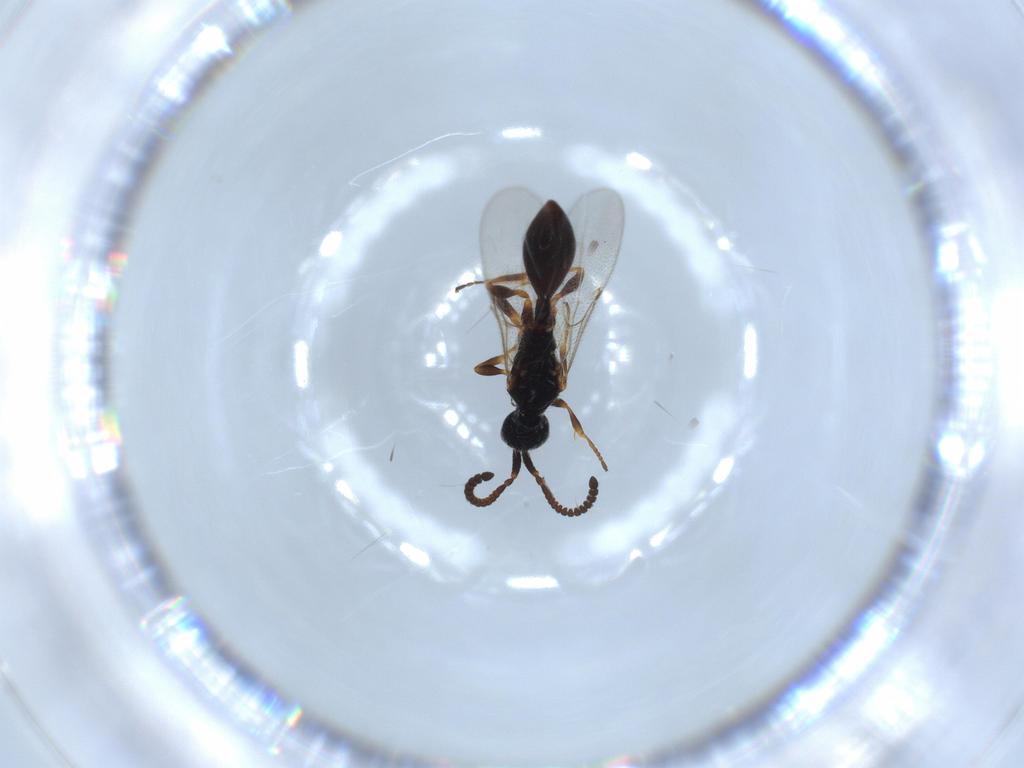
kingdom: Animalia
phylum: Arthropoda
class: Insecta
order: Hymenoptera
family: Diapriidae
